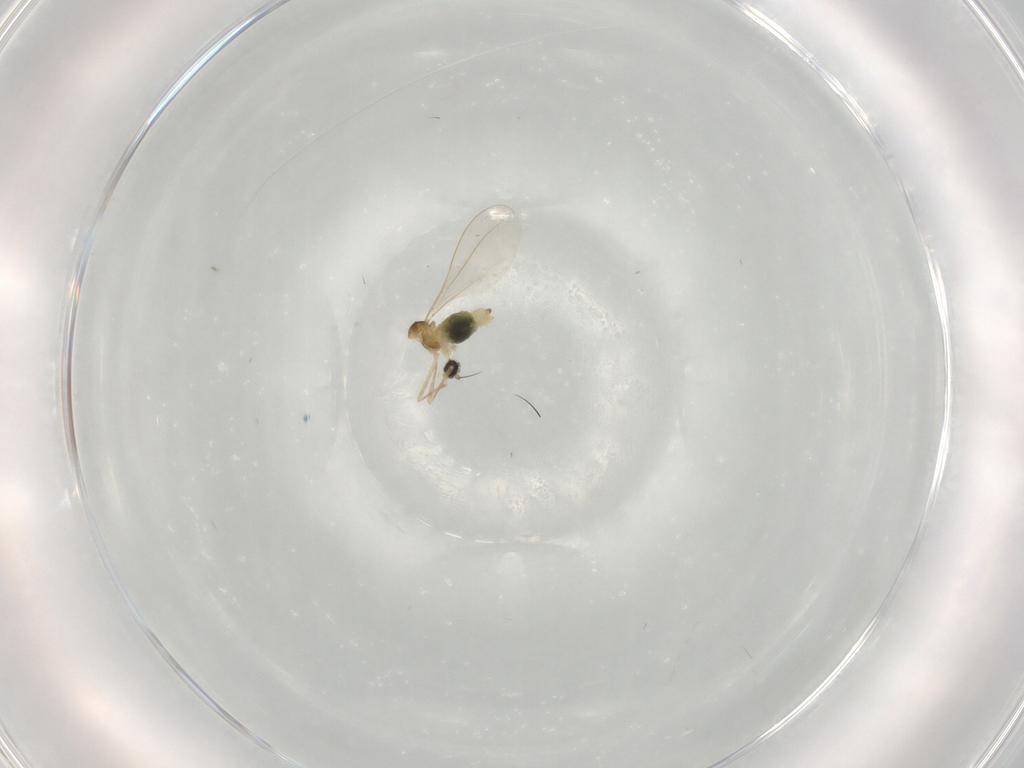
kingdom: Animalia
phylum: Arthropoda
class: Insecta
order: Diptera
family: Cecidomyiidae
